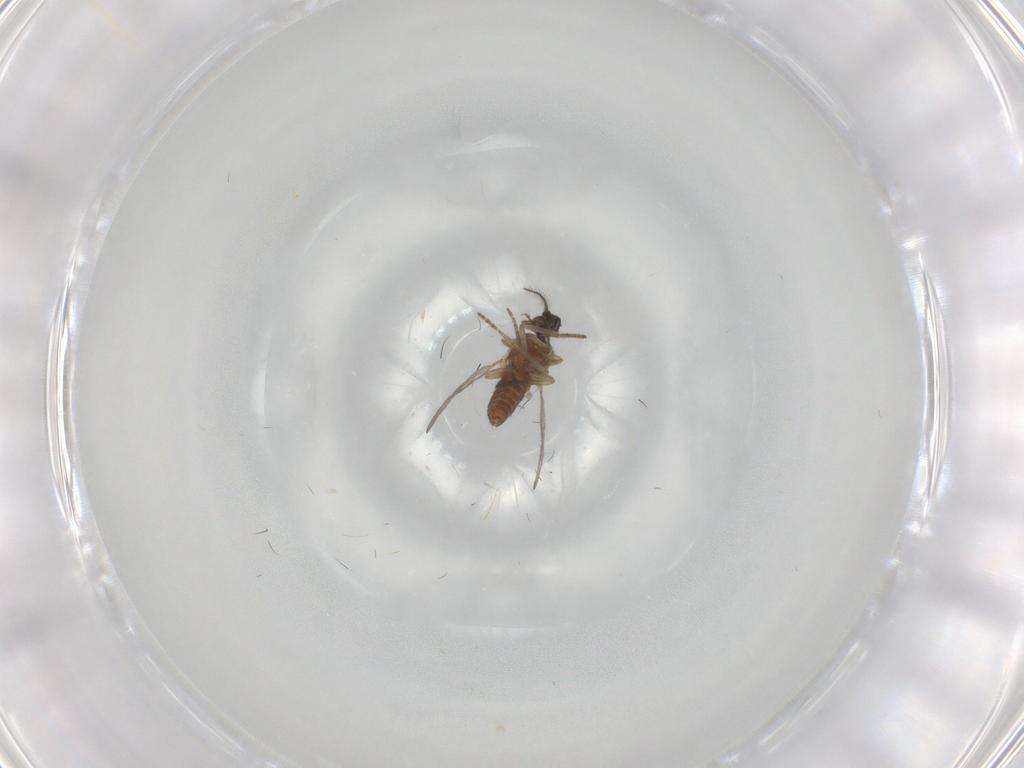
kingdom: Animalia
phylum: Arthropoda
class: Insecta
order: Diptera
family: Ceratopogonidae
